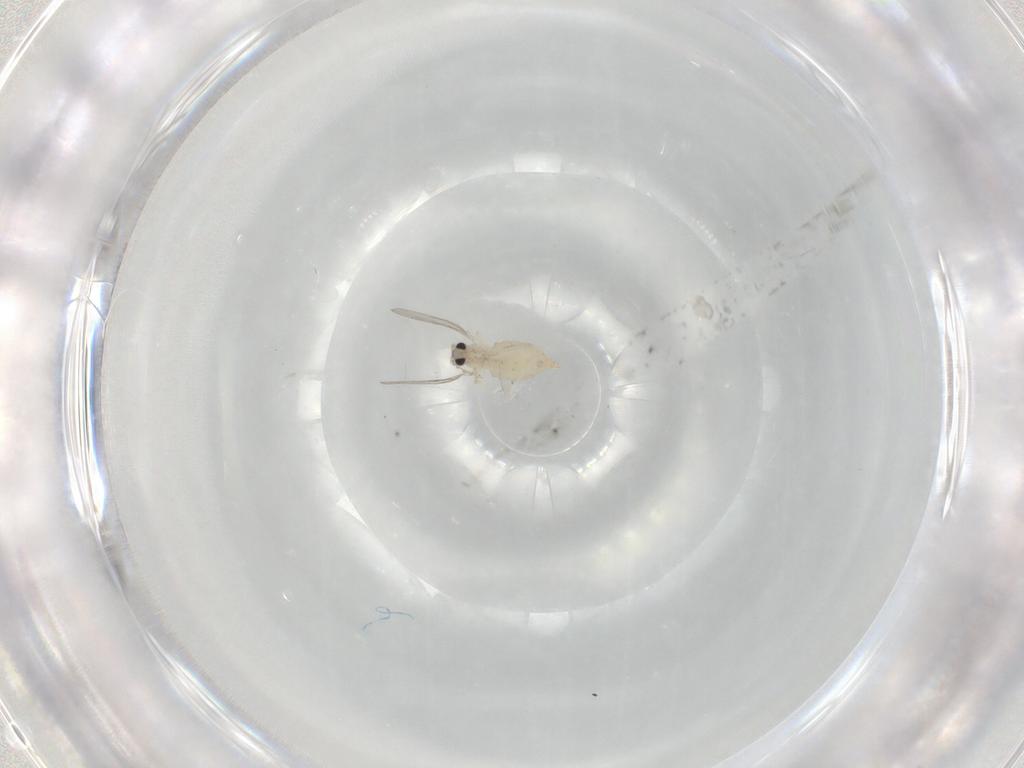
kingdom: Animalia
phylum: Arthropoda
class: Insecta
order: Diptera
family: Cecidomyiidae
